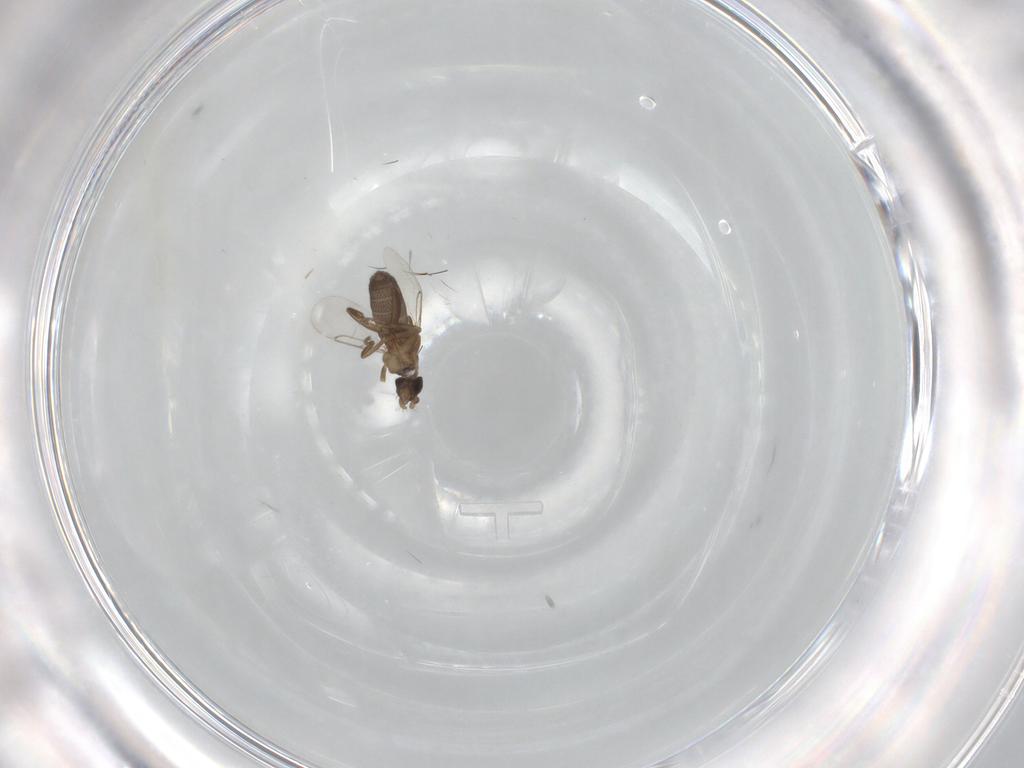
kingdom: Animalia
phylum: Arthropoda
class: Insecta
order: Diptera
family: Phoridae
